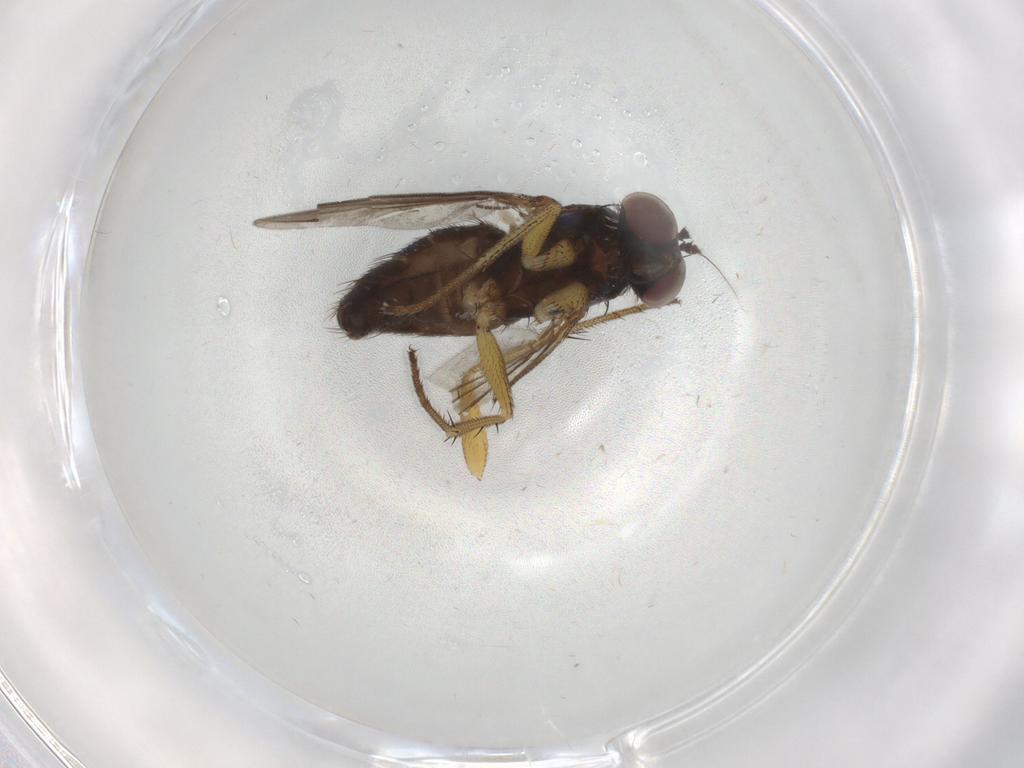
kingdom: Animalia
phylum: Arthropoda
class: Insecta
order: Diptera
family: Dolichopodidae
